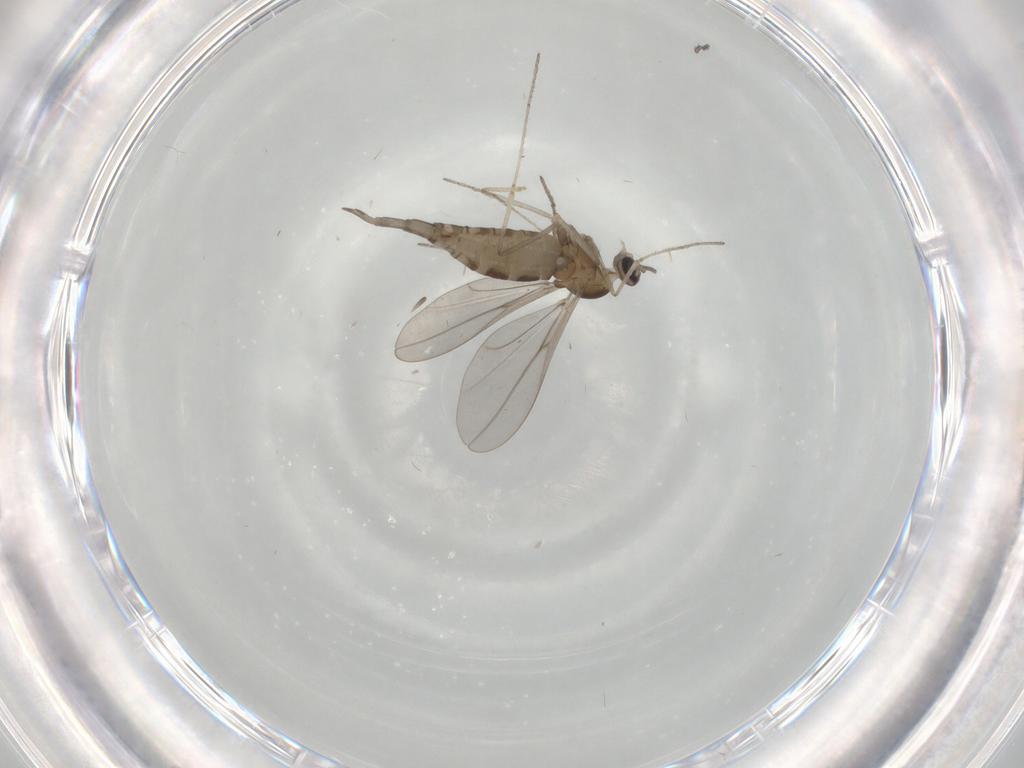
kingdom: Animalia
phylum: Arthropoda
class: Insecta
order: Diptera
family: Cecidomyiidae
